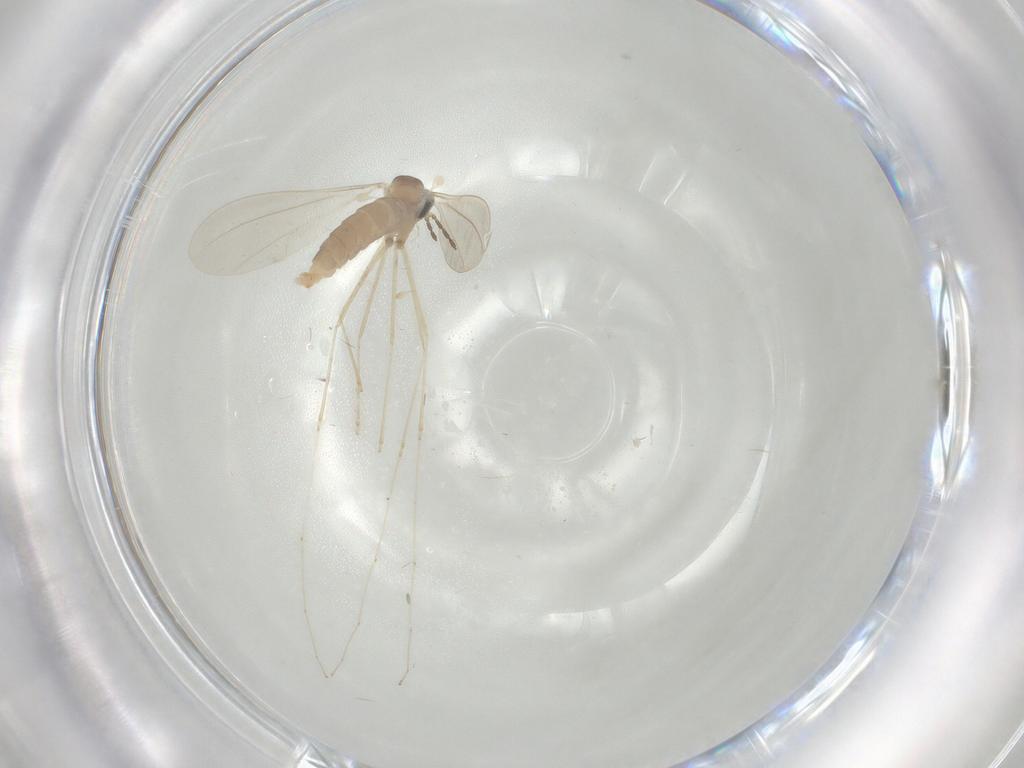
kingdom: Animalia
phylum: Arthropoda
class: Insecta
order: Diptera
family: Cecidomyiidae
